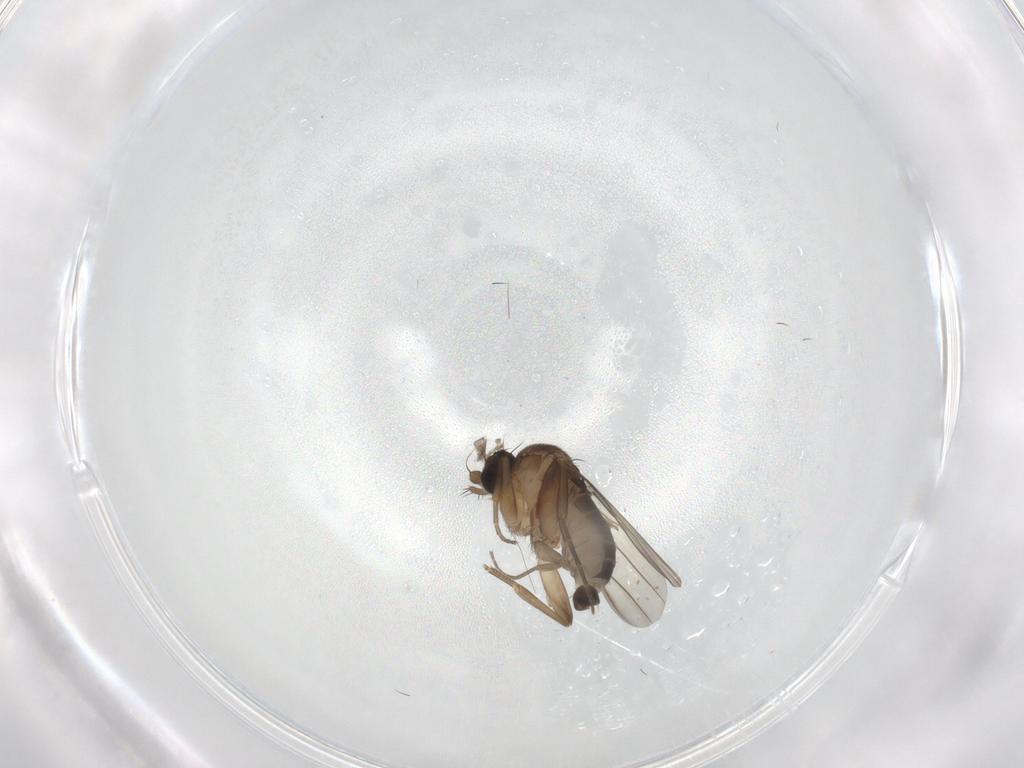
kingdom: Animalia
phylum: Arthropoda
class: Insecta
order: Diptera
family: Phoridae
